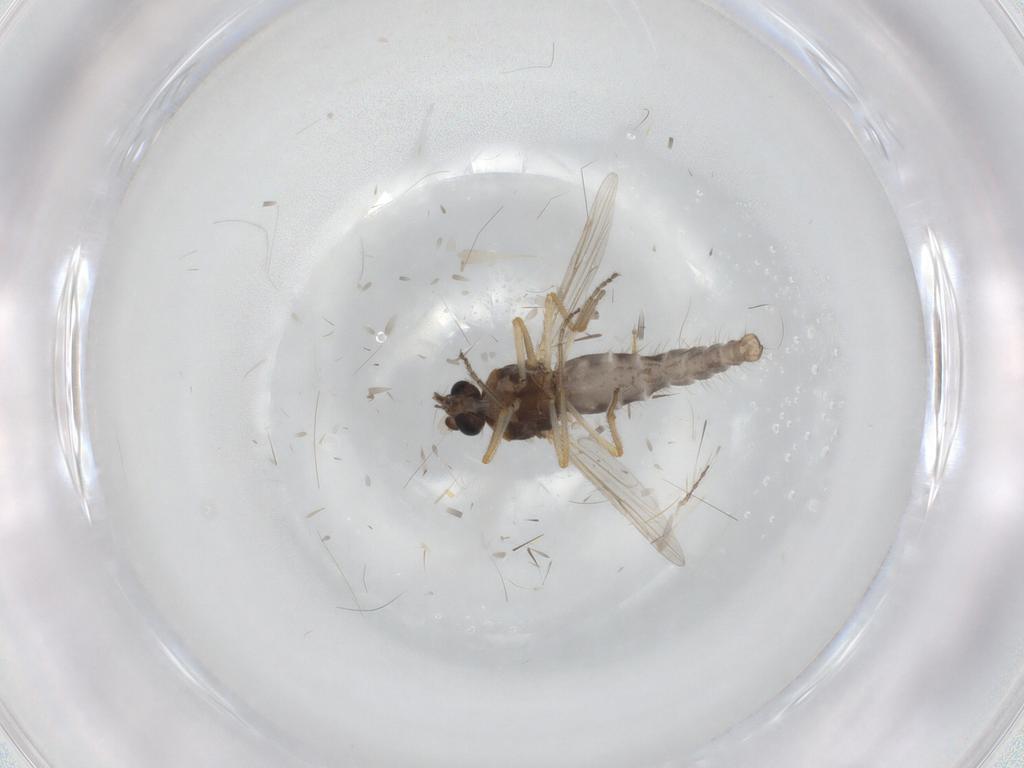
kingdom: Animalia
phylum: Arthropoda
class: Insecta
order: Diptera
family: Ceratopogonidae
